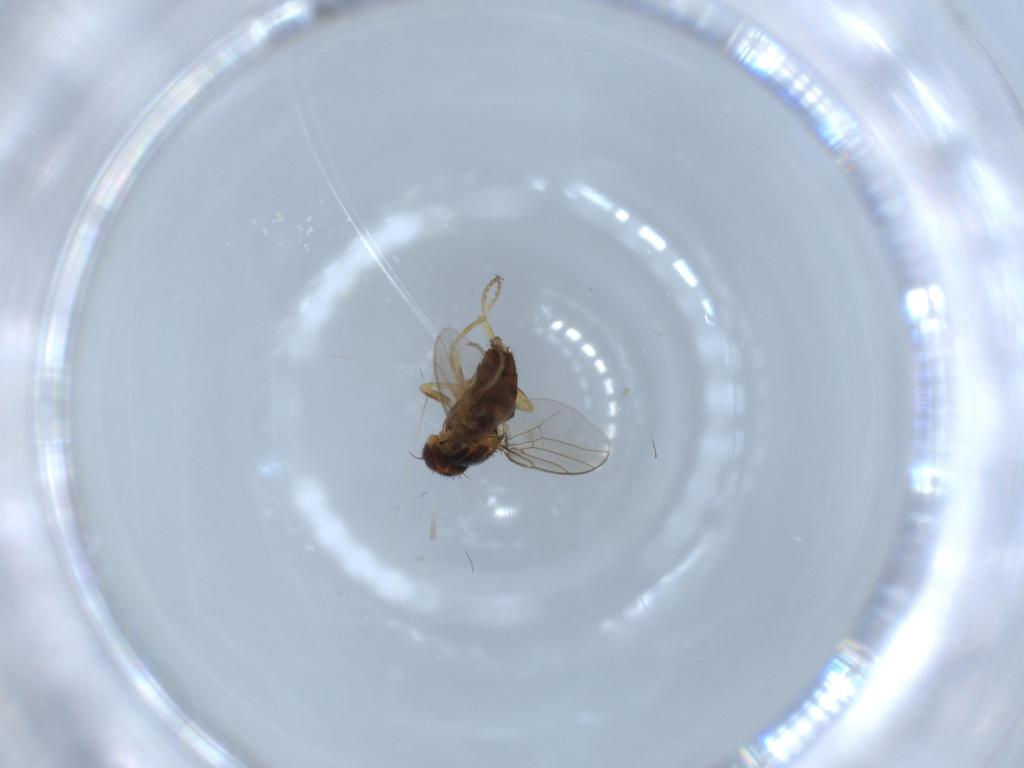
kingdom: Animalia
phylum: Arthropoda
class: Insecta
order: Diptera
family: Chloropidae
